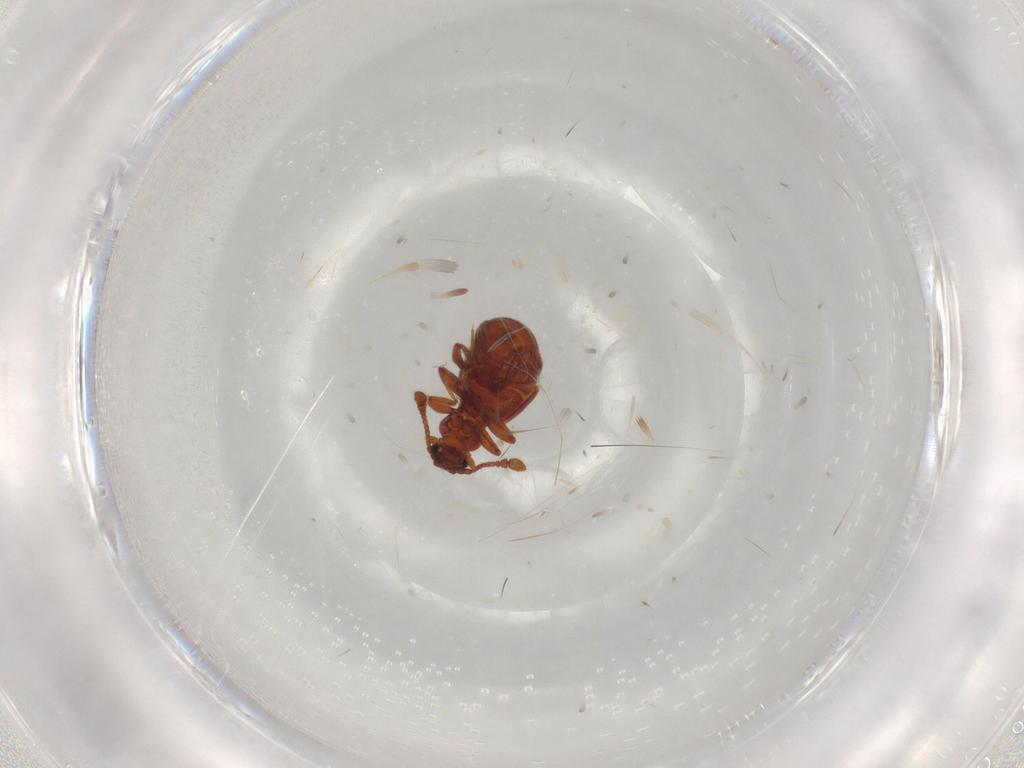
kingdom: Animalia
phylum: Arthropoda
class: Insecta
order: Coleoptera
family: Staphylinidae
